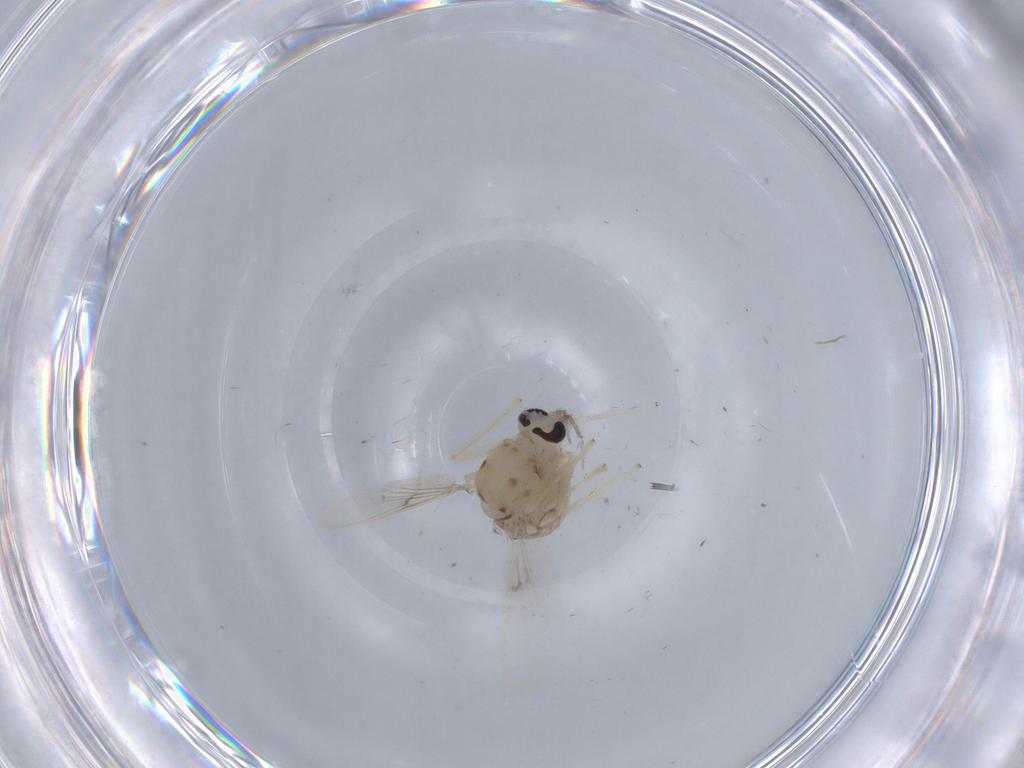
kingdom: Animalia
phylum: Arthropoda
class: Insecta
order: Diptera
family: Chironomidae
